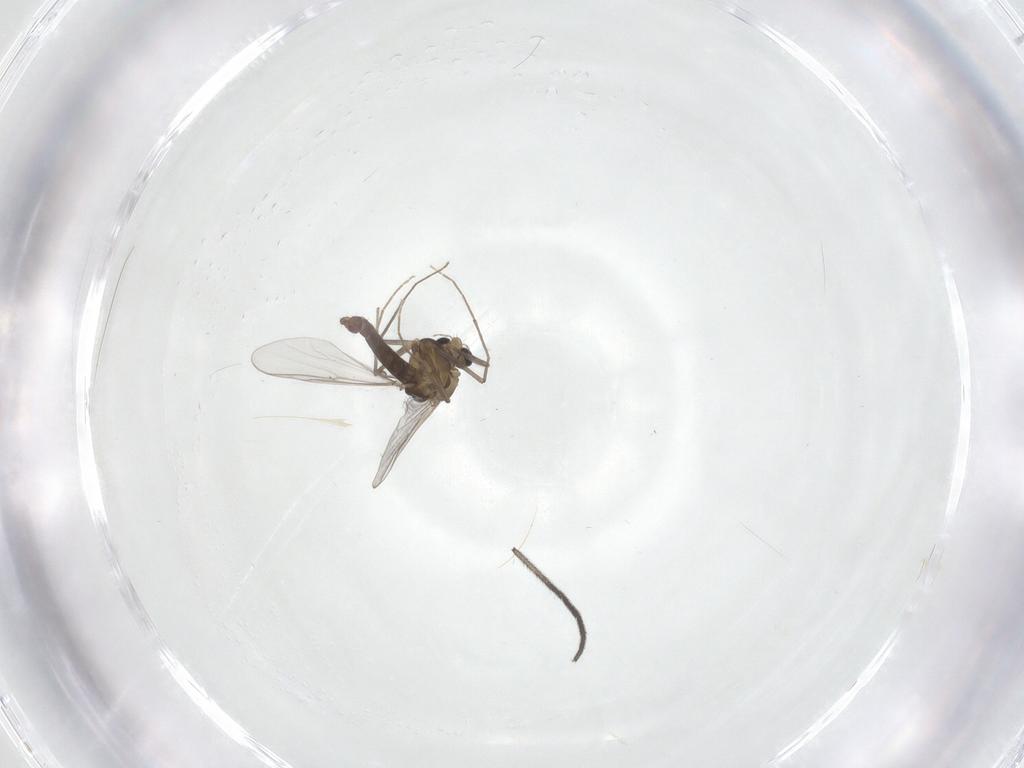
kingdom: Animalia
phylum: Arthropoda
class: Insecta
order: Diptera
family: Chironomidae
